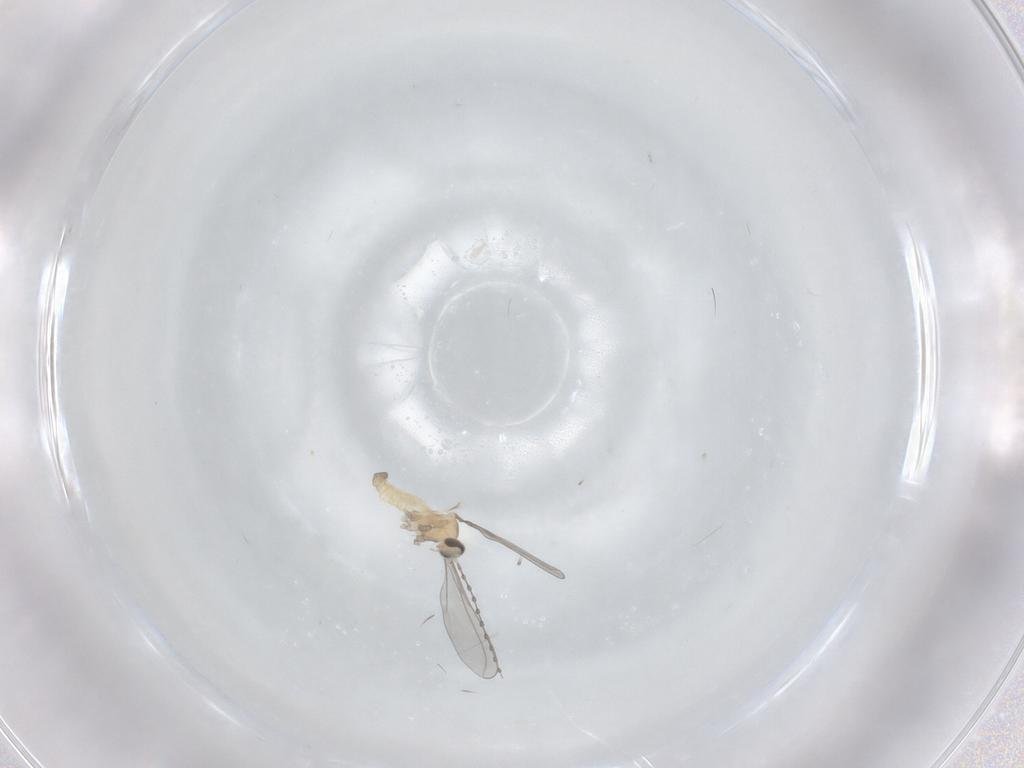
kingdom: Animalia
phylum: Arthropoda
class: Insecta
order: Diptera
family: Cecidomyiidae
